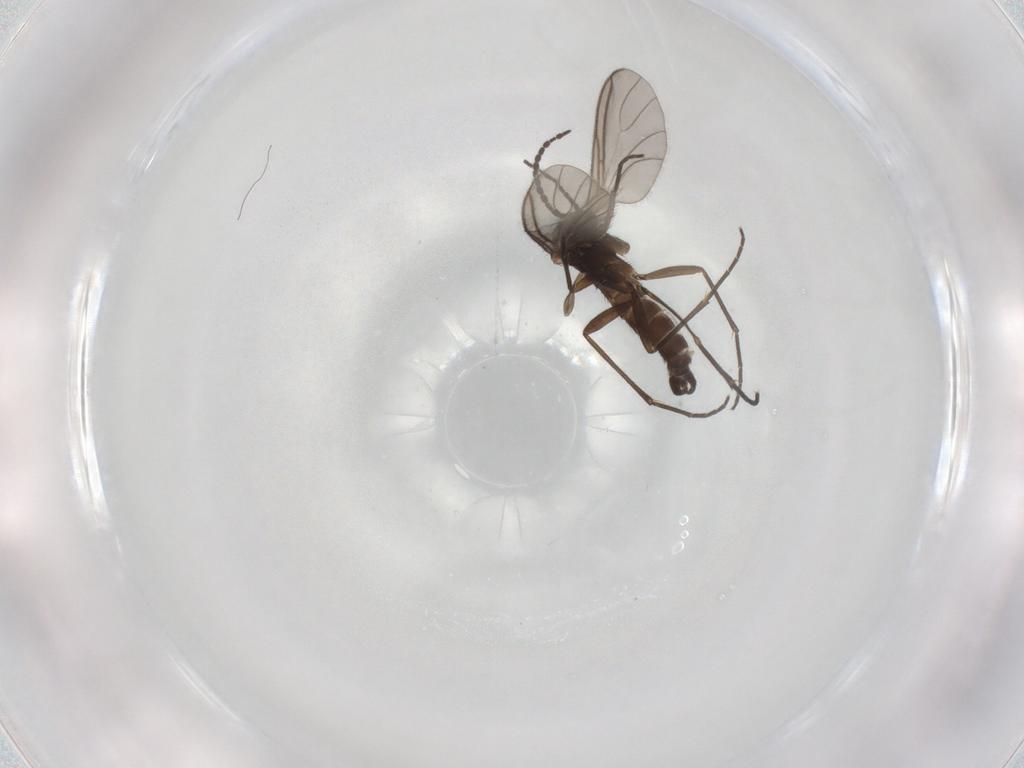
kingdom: Animalia
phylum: Arthropoda
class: Insecta
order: Diptera
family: Sciaridae
